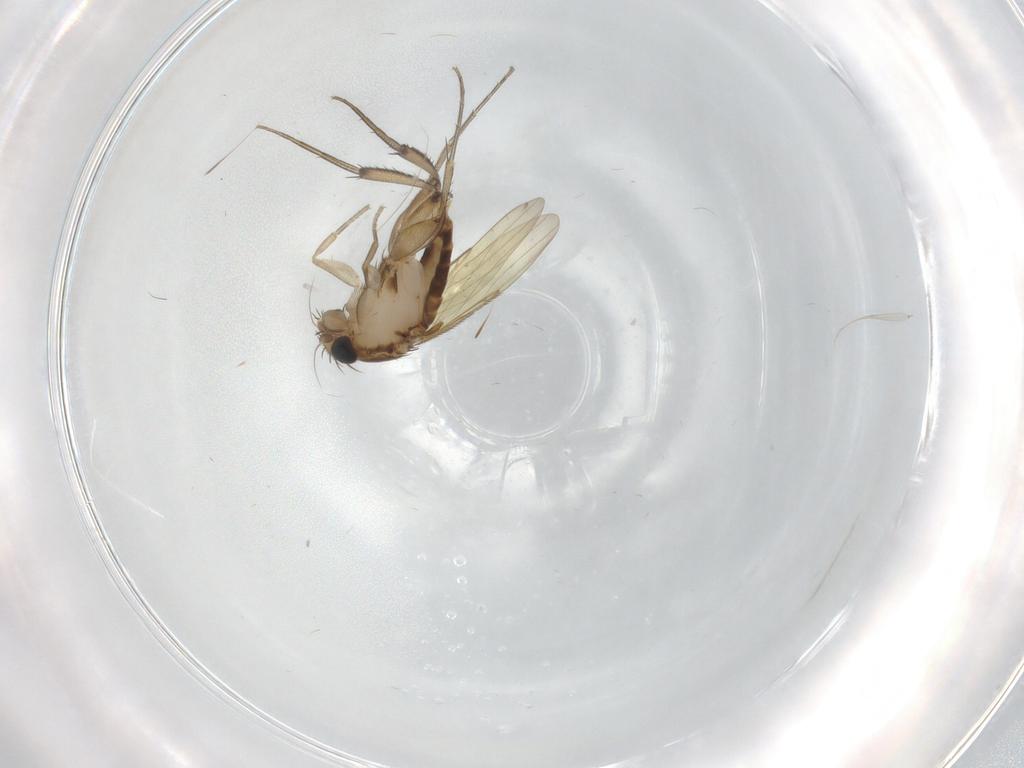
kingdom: Animalia
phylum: Arthropoda
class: Insecta
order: Diptera
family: Phoridae
